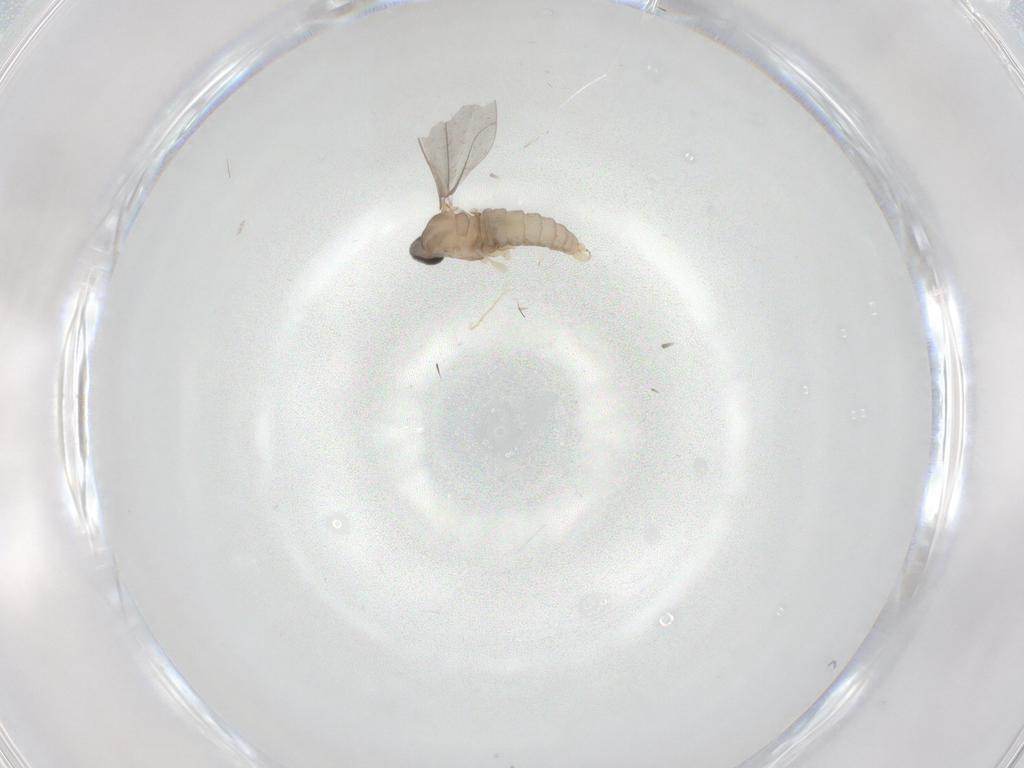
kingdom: Animalia
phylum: Arthropoda
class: Insecta
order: Diptera
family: Cecidomyiidae
